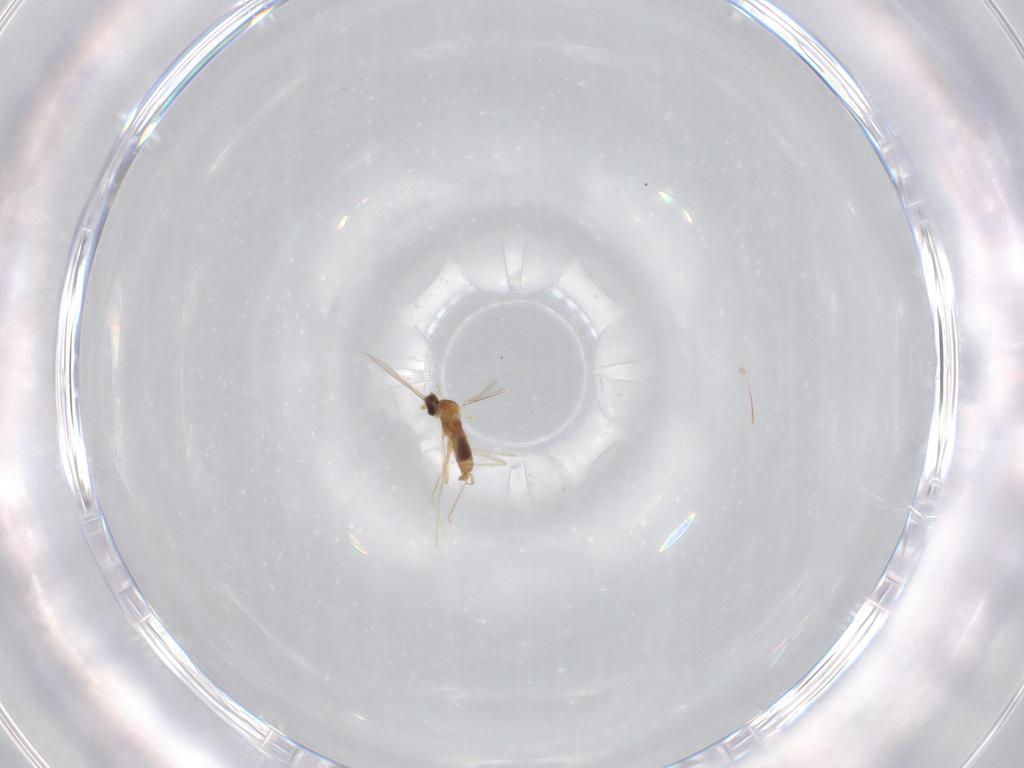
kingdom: Animalia
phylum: Arthropoda
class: Insecta
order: Diptera
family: Cecidomyiidae
